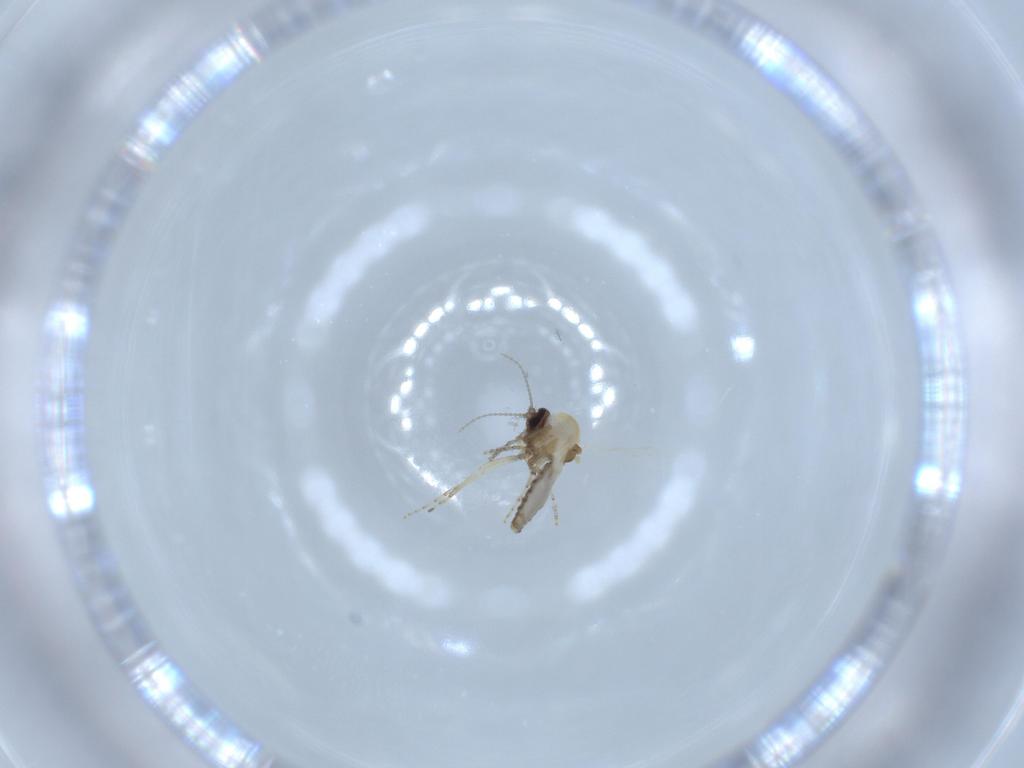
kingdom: Animalia
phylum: Arthropoda
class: Insecta
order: Diptera
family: Ceratopogonidae
